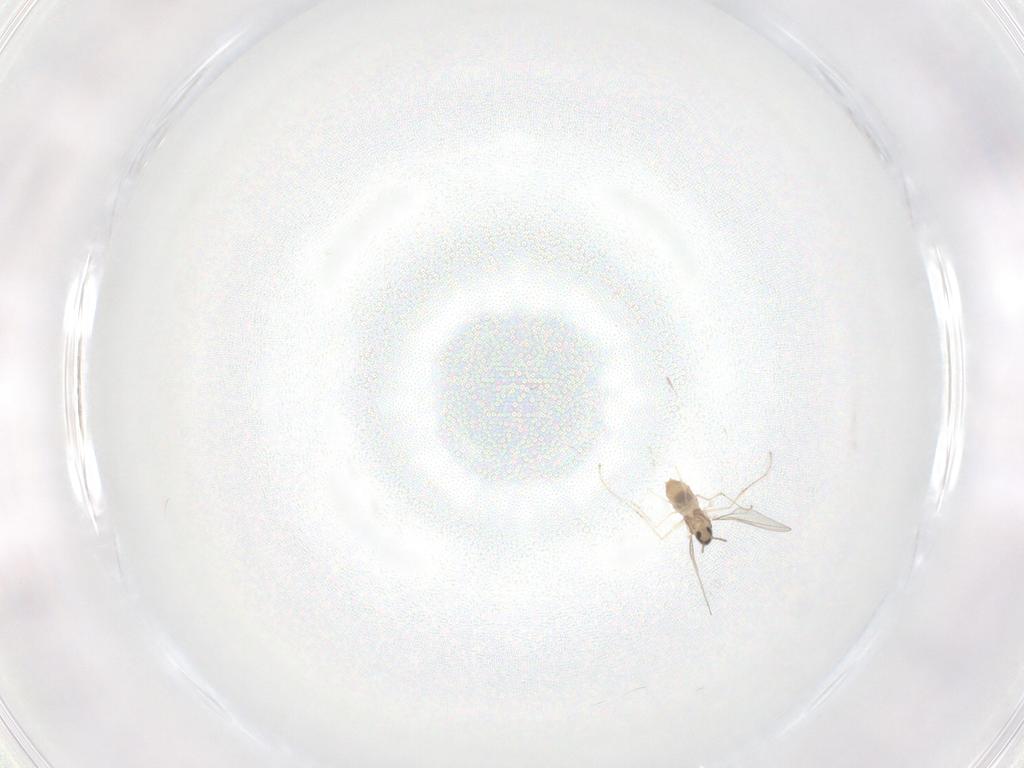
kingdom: Animalia
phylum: Arthropoda
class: Insecta
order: Diptera
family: Cecidomyiidae
